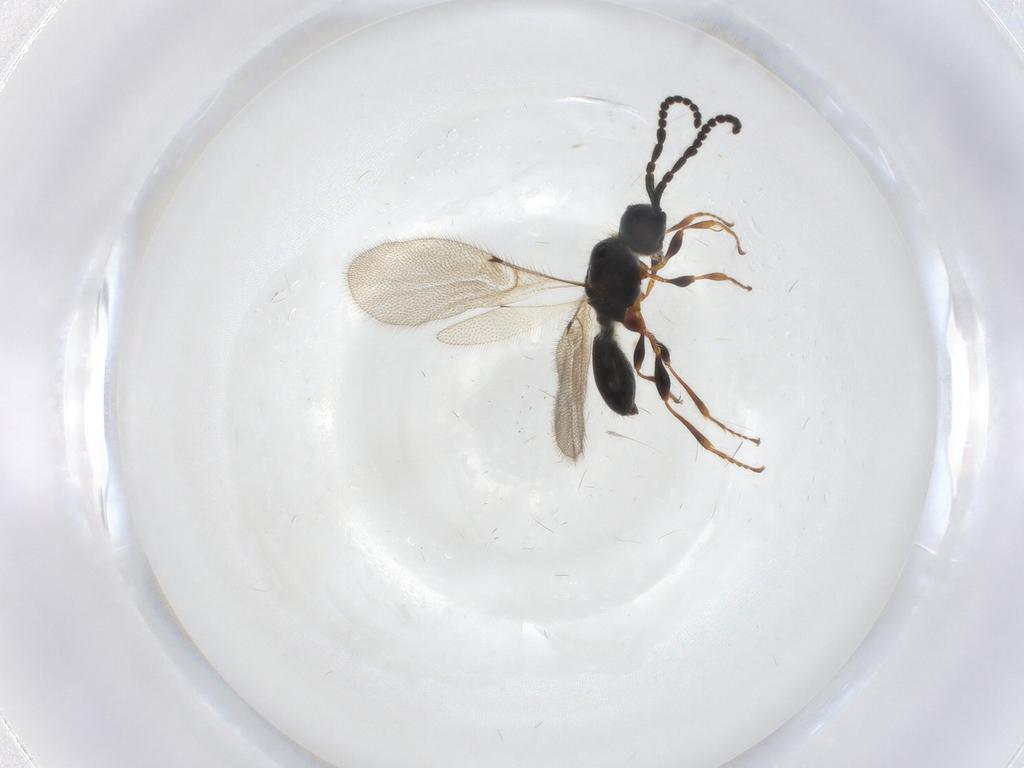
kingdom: Animalia
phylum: Arthropoda
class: Insecta
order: Hymenoptera
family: Diapriidae
